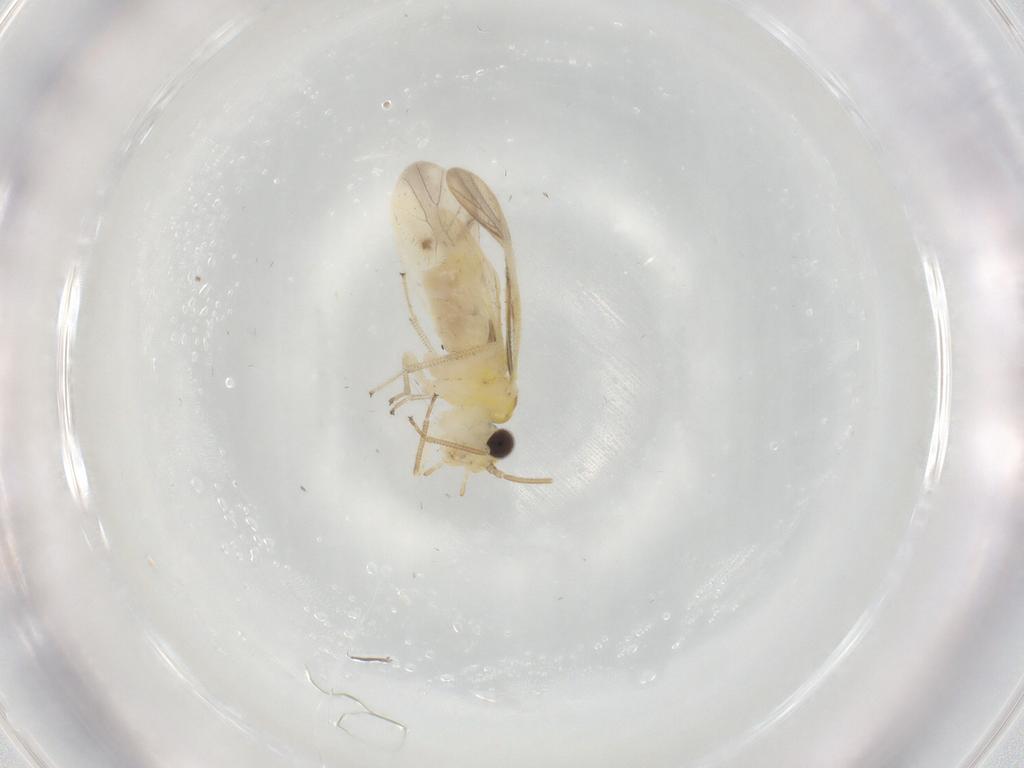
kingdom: Animalia
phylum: Arthropoda
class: Insecta
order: Psocodea
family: Caeciliusidae
